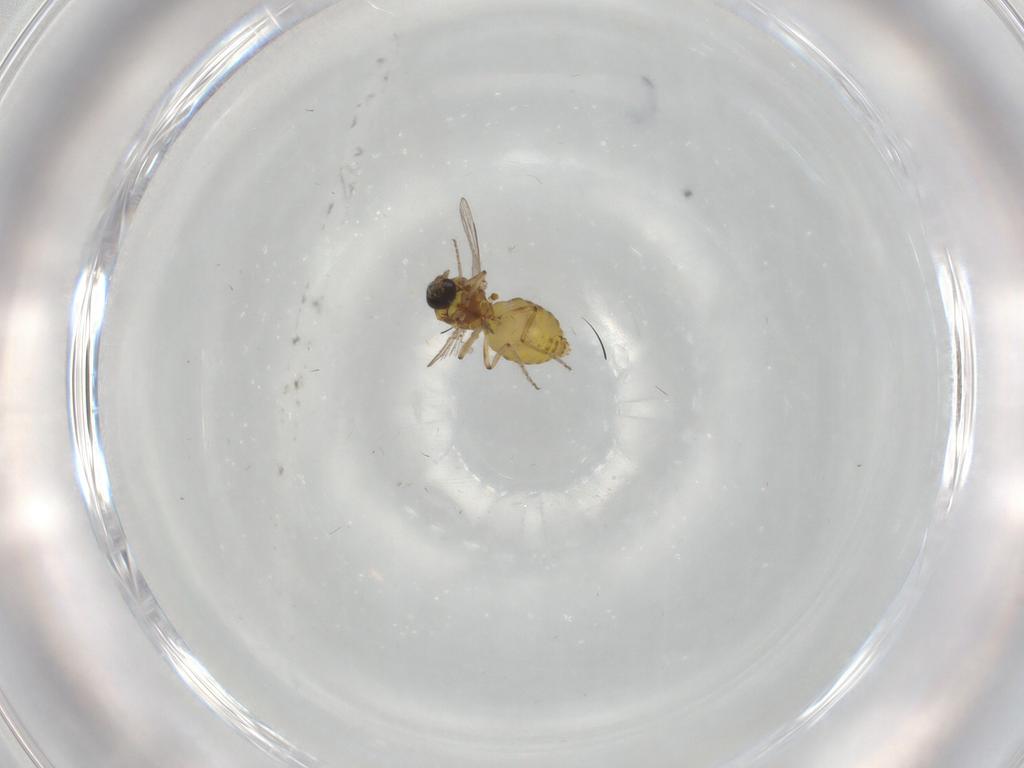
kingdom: Animalia
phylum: Arthropoda
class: Insecta
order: Diptera
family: Ceratopogonidae
